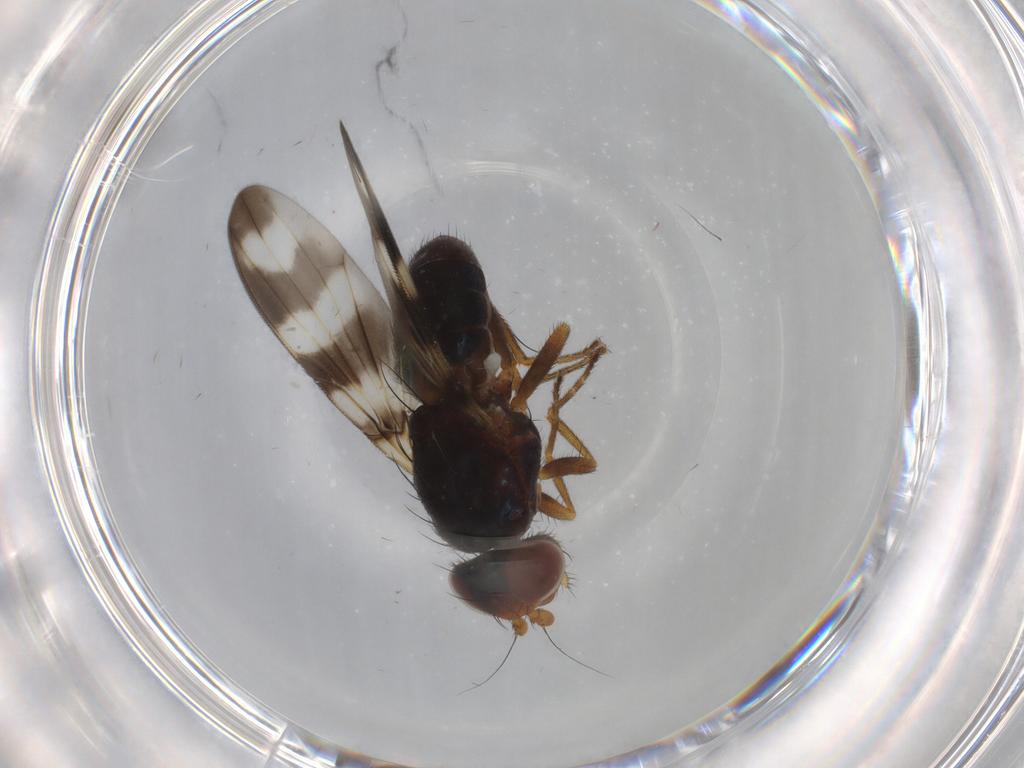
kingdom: Animalia
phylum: Arthropoda
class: Insecta
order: Diptera
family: Ulidiidae
